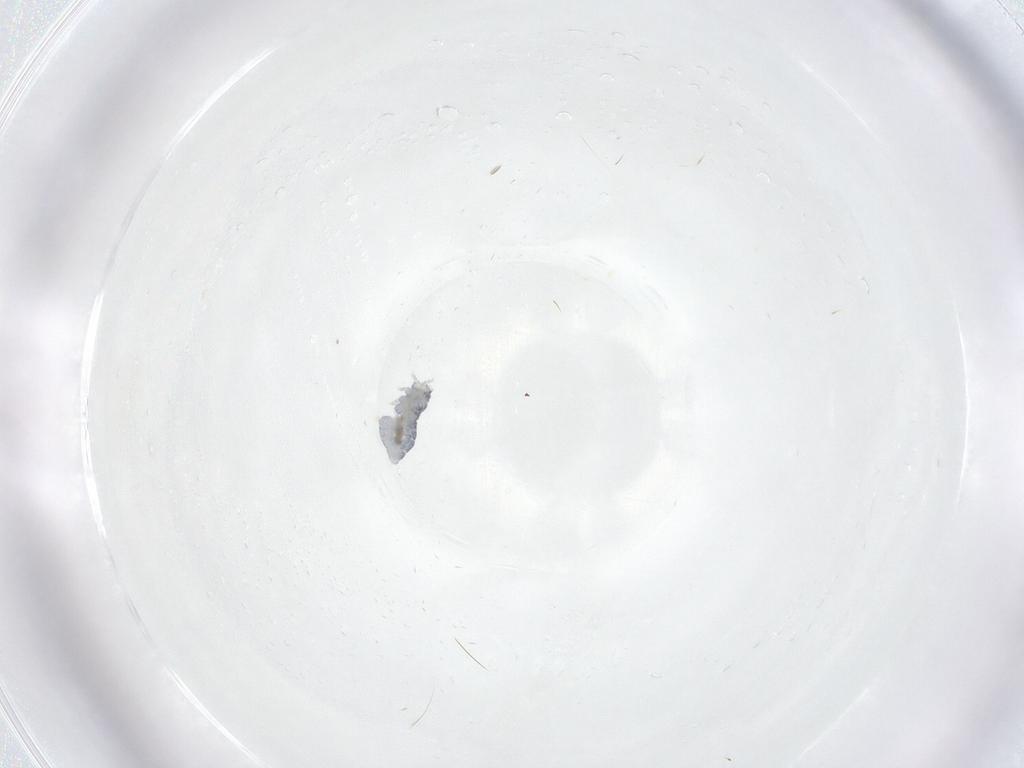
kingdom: Animalia
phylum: Arthropoda
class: Collembola
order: Poduromorpha
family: Hypogastruridae
